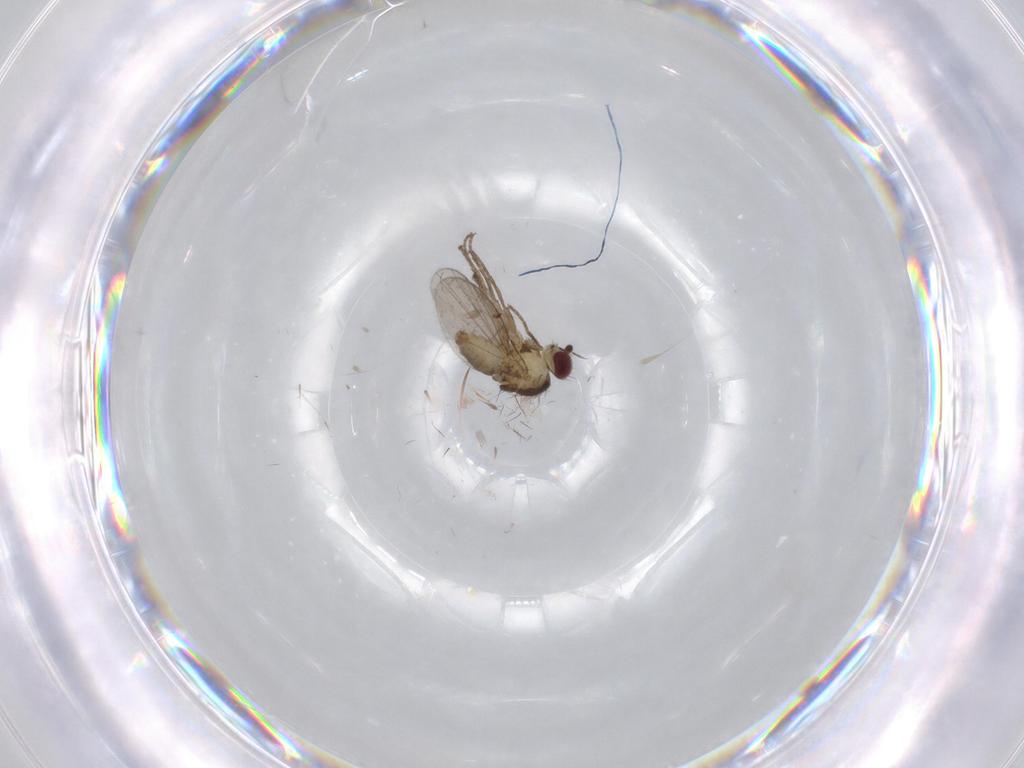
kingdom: Animalia
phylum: Arthropoda
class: Insecta
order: Diptera
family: Agromyzidae
